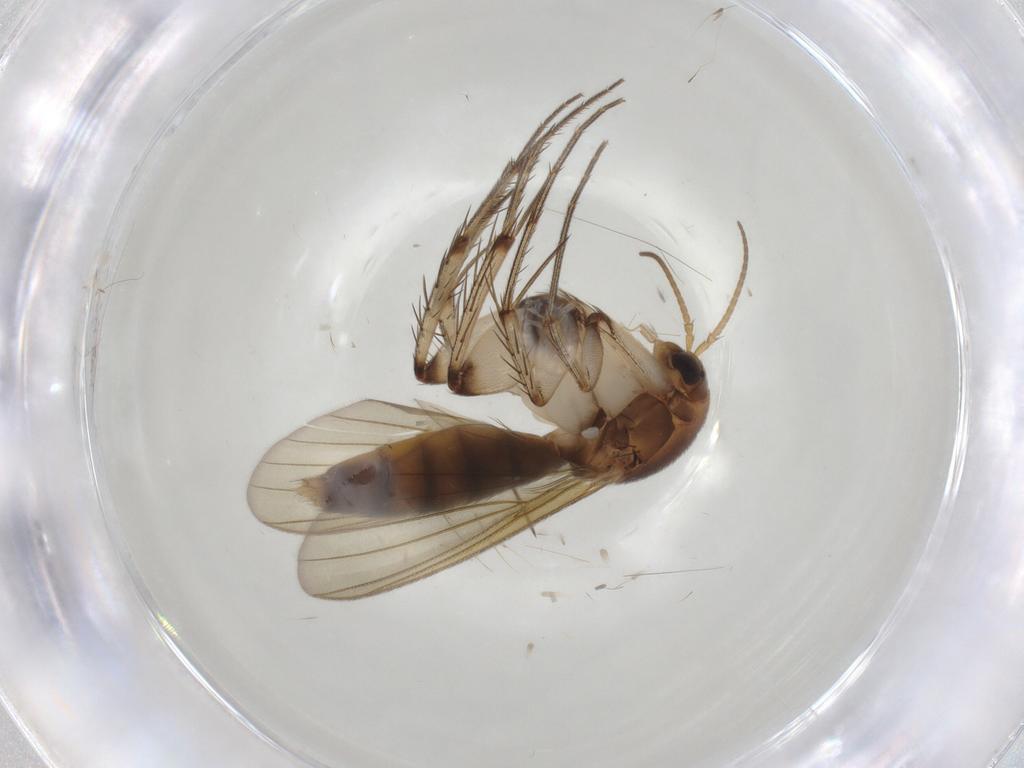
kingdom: Animalia
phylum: Arthropoda
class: Insecta
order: Diptera
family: Mycetophilidae
